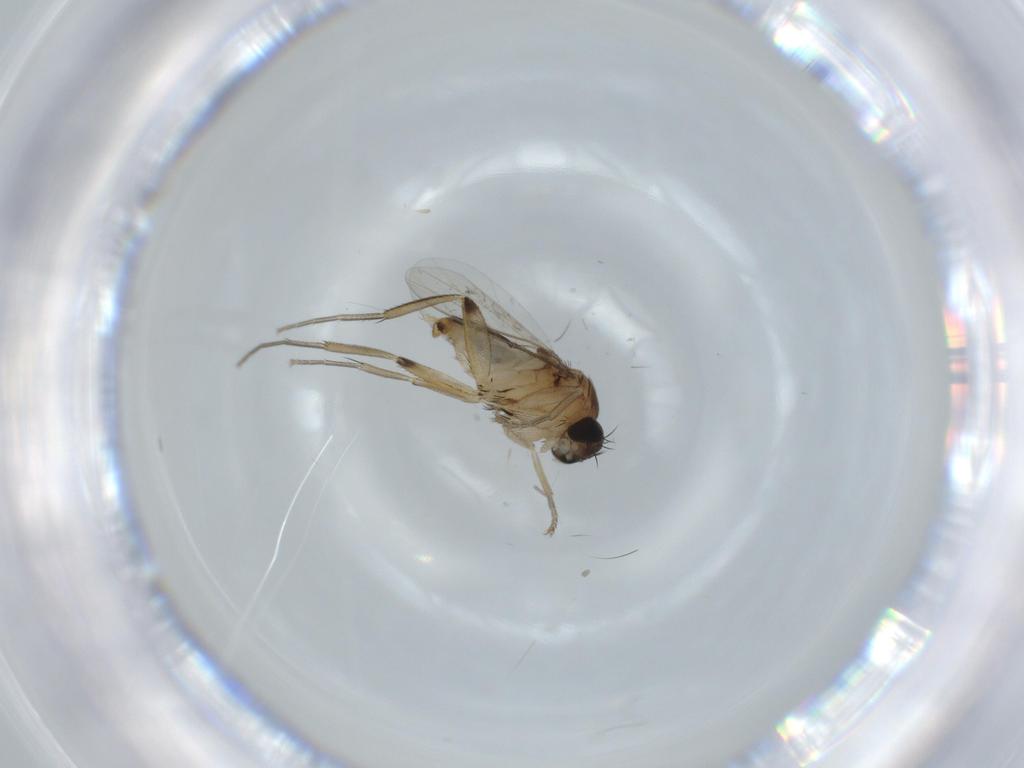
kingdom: Animalia
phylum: Arthropoda
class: Insecta
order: Diptera
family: Phoridae
